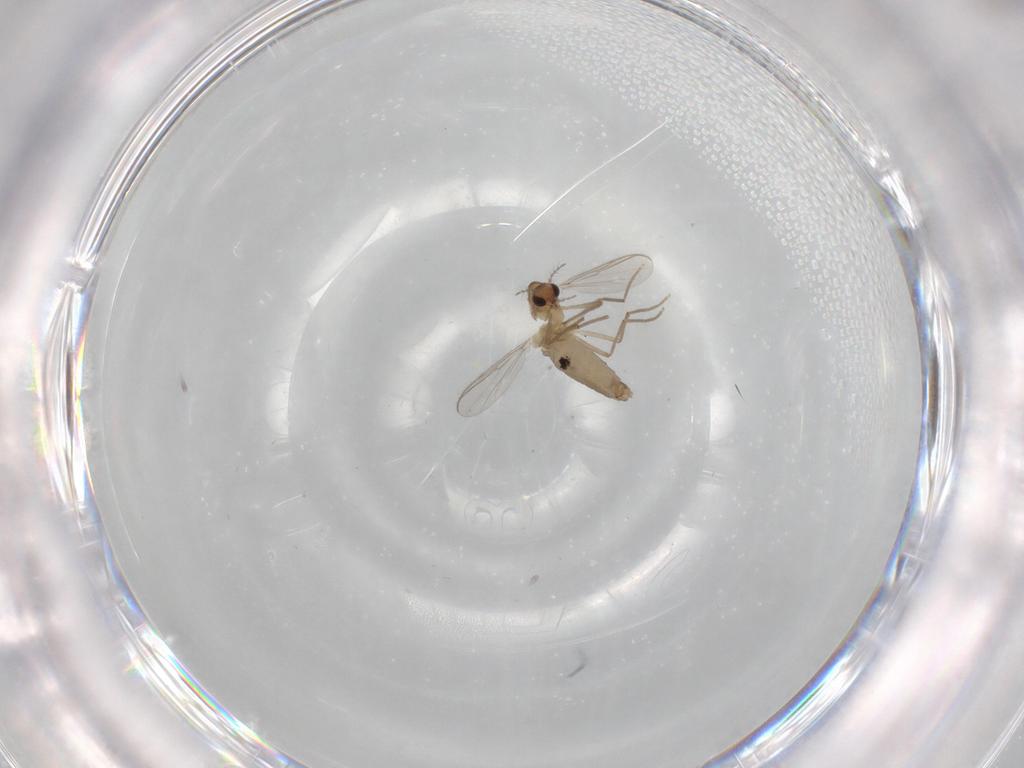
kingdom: Animalia
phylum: Arthropoda
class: Insecta
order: Diptera
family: Chironomidae
